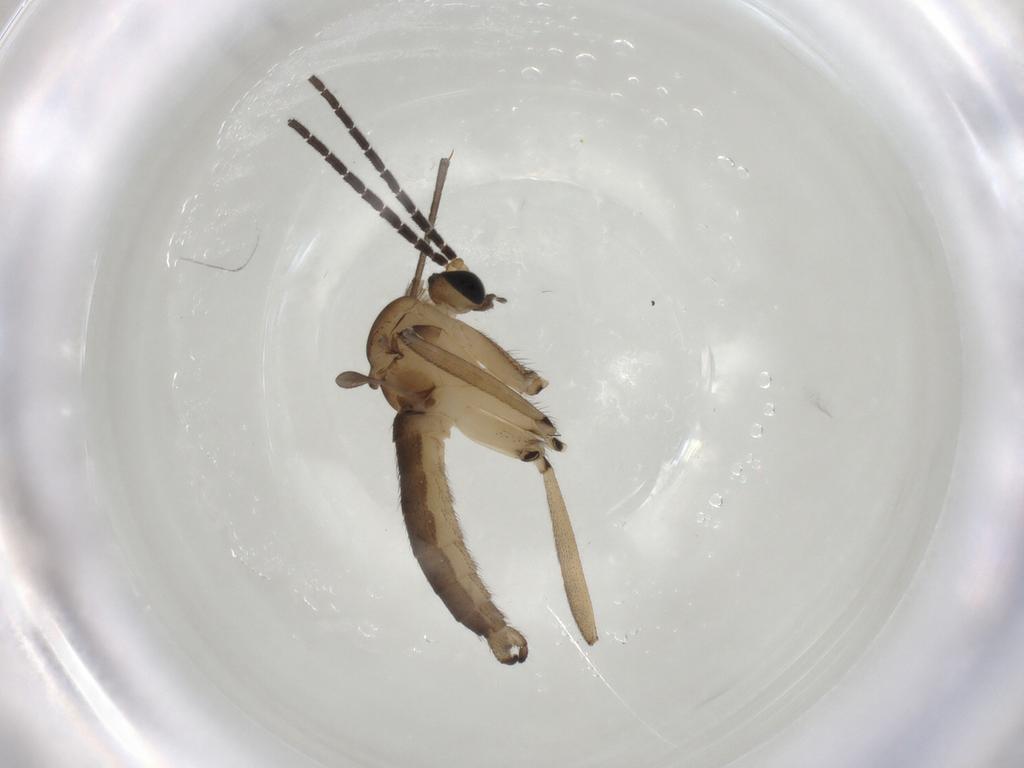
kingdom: Animalia
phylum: Arthropoda
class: Insecta
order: Diptera
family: Sciaridae
